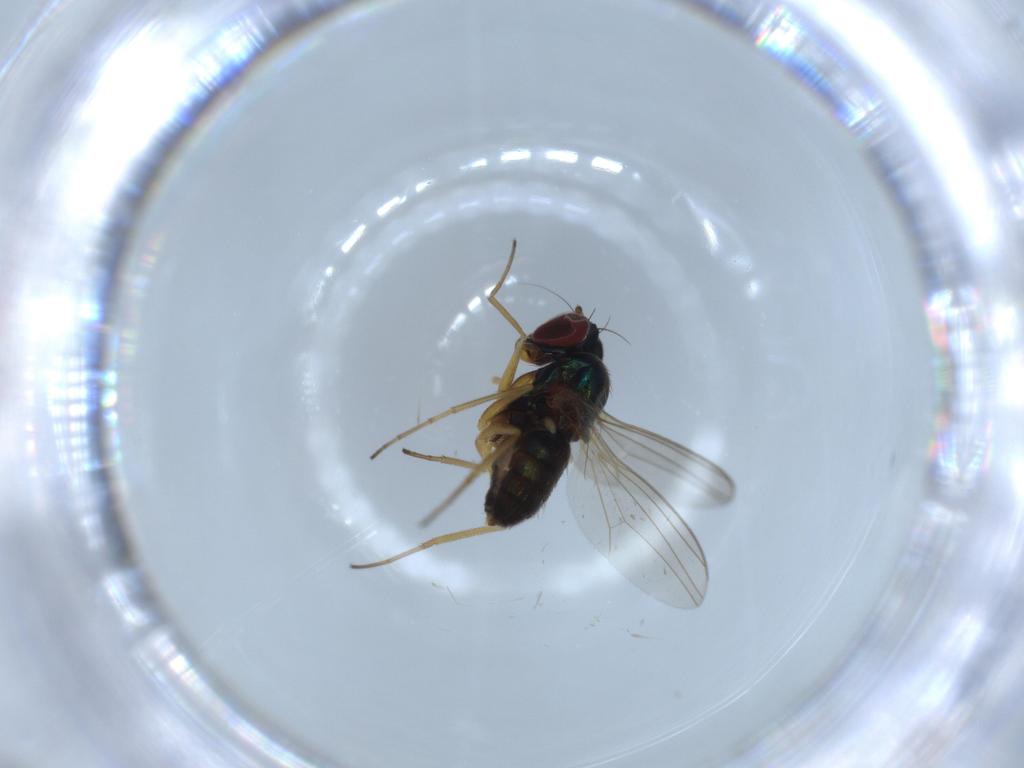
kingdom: Animalia
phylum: Arthropoda
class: Insecta
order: Diptera
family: Dolichopodidae
